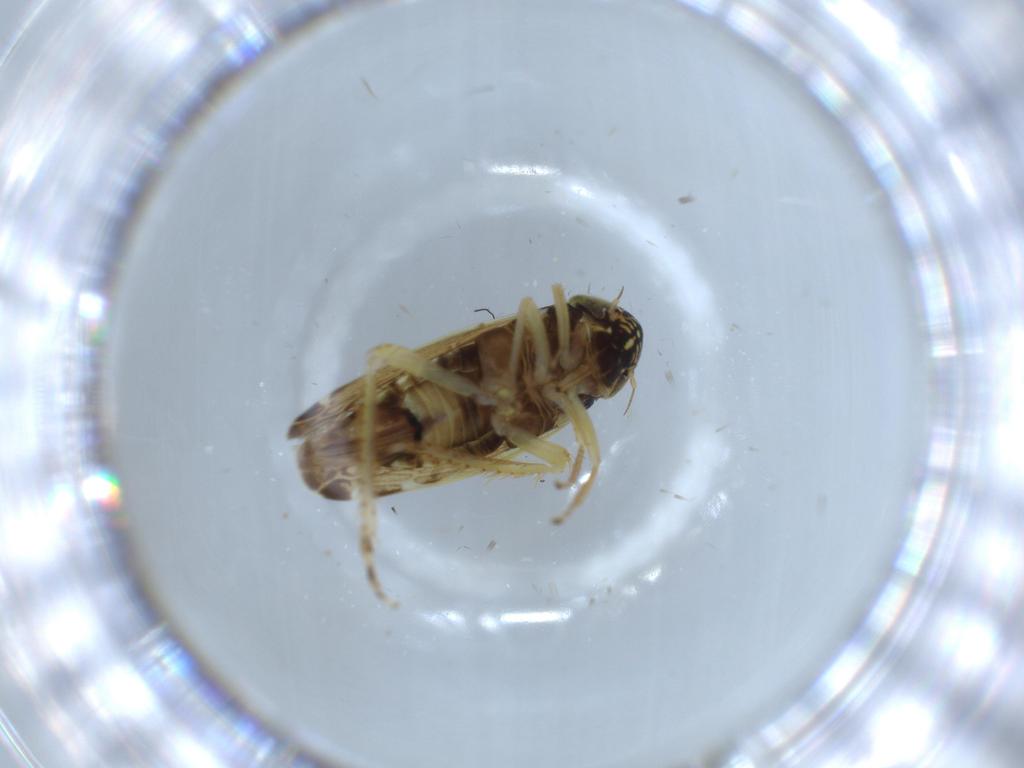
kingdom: Animalia
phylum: Arthropoda
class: Insecta
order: Hemiptera
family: Cicadellidae
